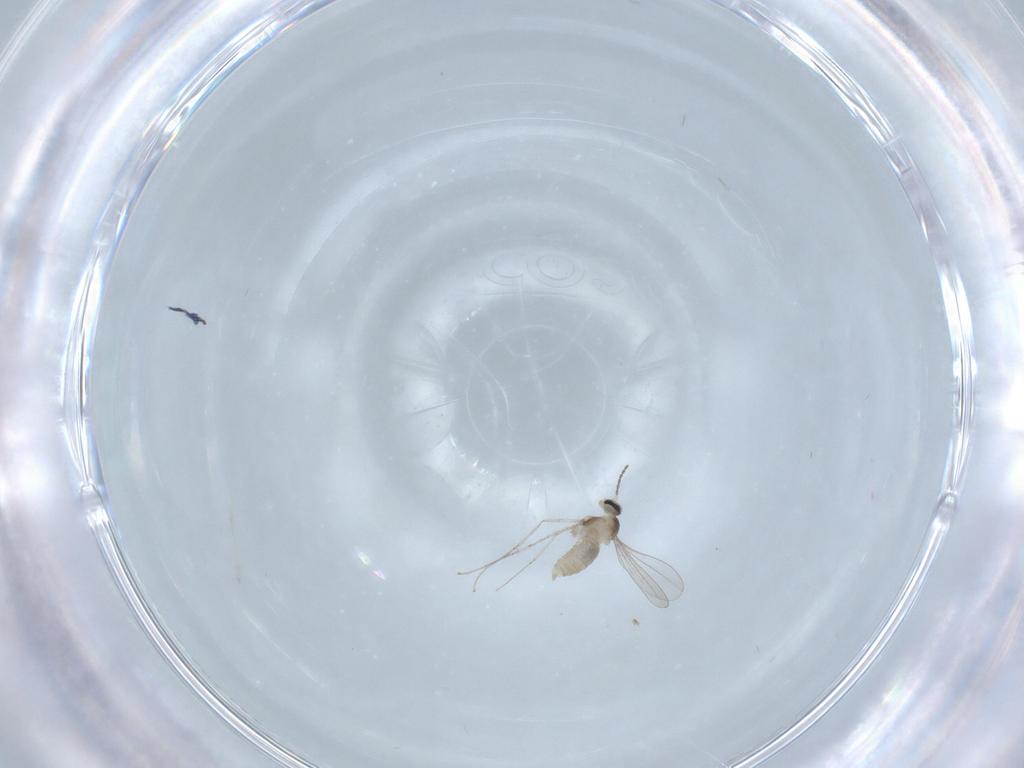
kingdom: Animalia
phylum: Arthropoda
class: Insecta
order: Diptera
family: Cecidomyiidae
